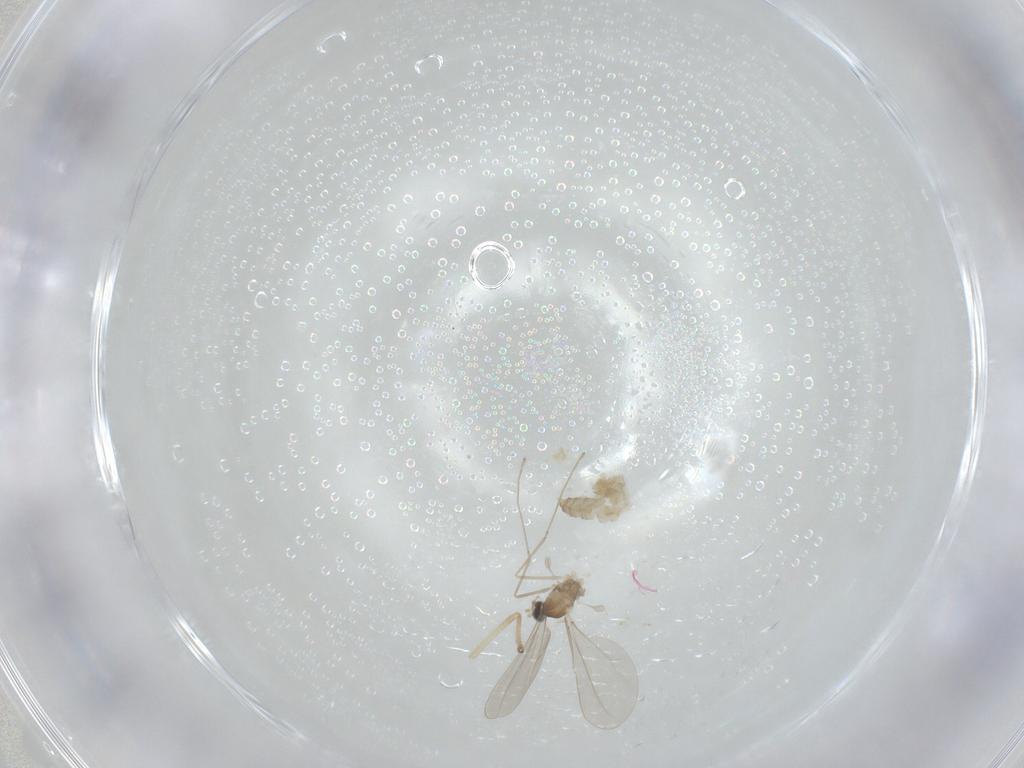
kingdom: Animalia
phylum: Arthropoda
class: Insecta
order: Diptera
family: Cecidomyiidae
